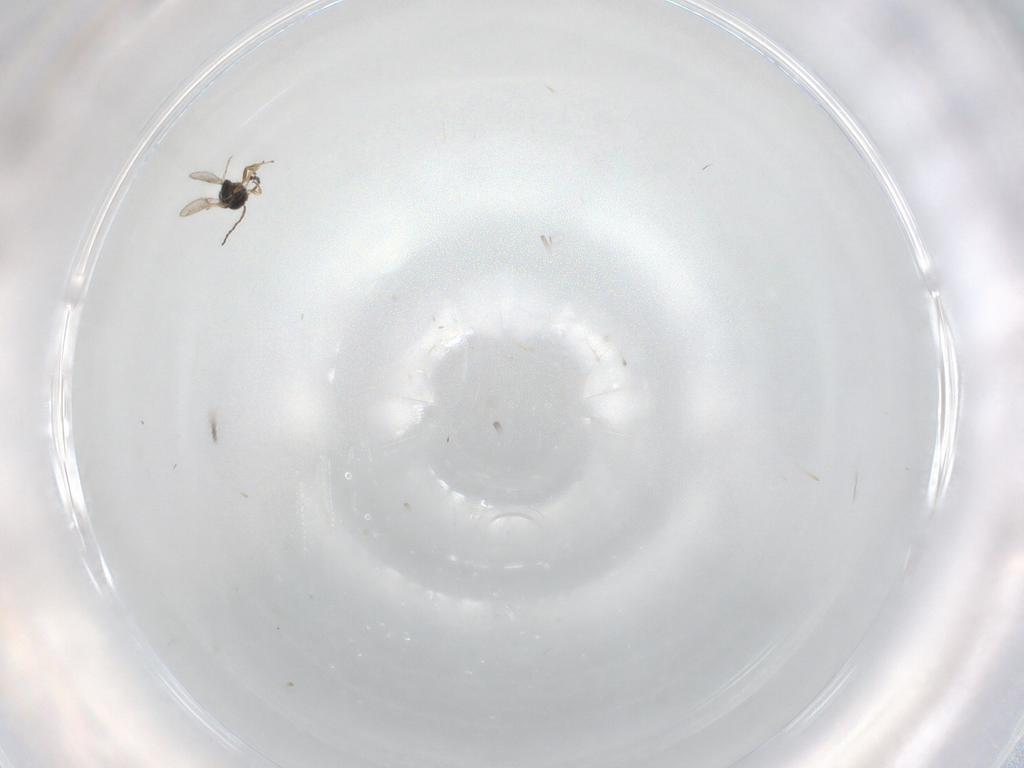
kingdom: Animalia
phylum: Arthropoda
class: Insecta
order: Hymenoptera
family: Scelionidae
